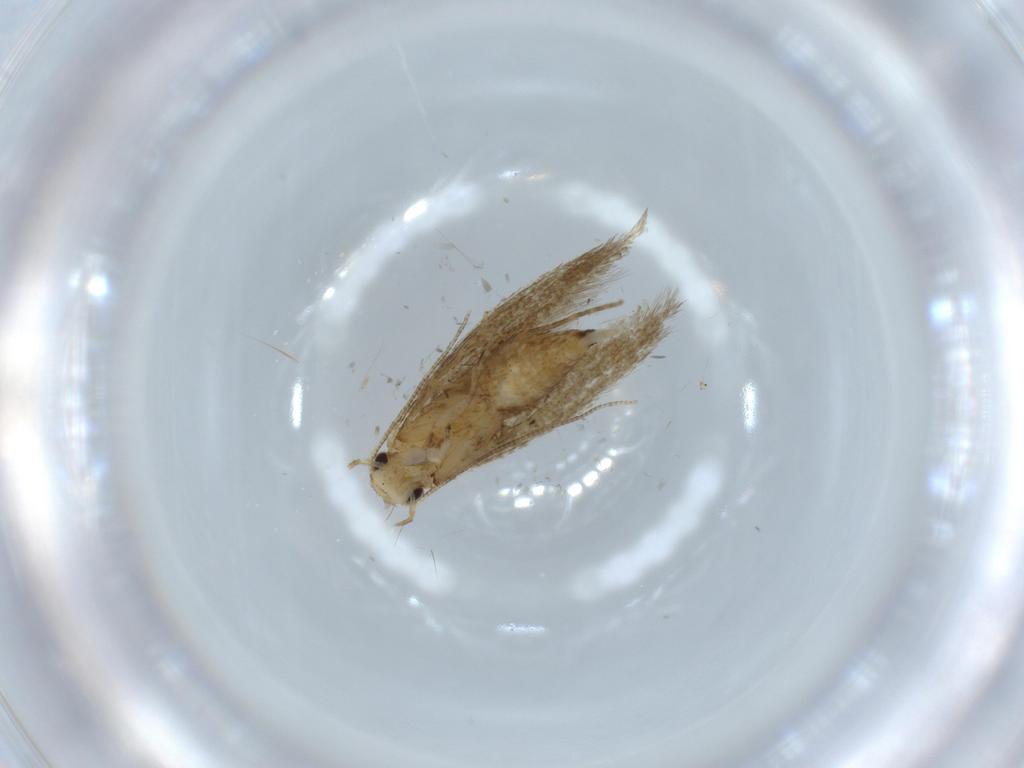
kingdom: Animalia
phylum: Arthropoda
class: Insecta
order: Lepidoptera
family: Tineidae
